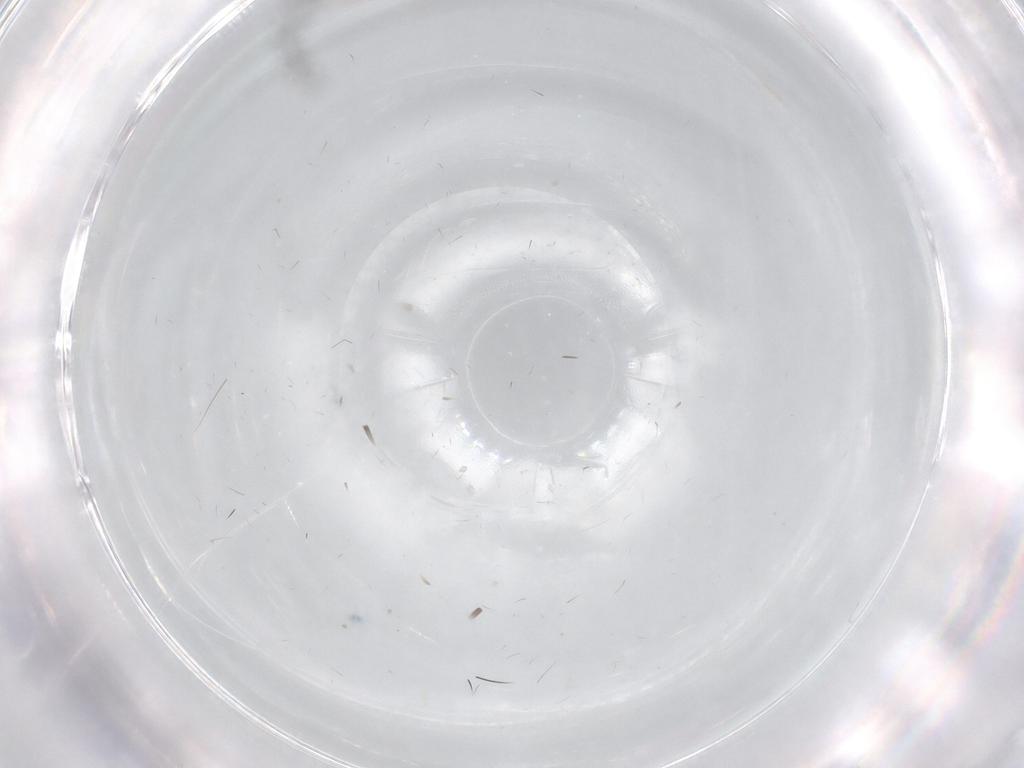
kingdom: Animalia
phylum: Arthropoda
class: Insecta
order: Diptera
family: Cecidomyiidae
